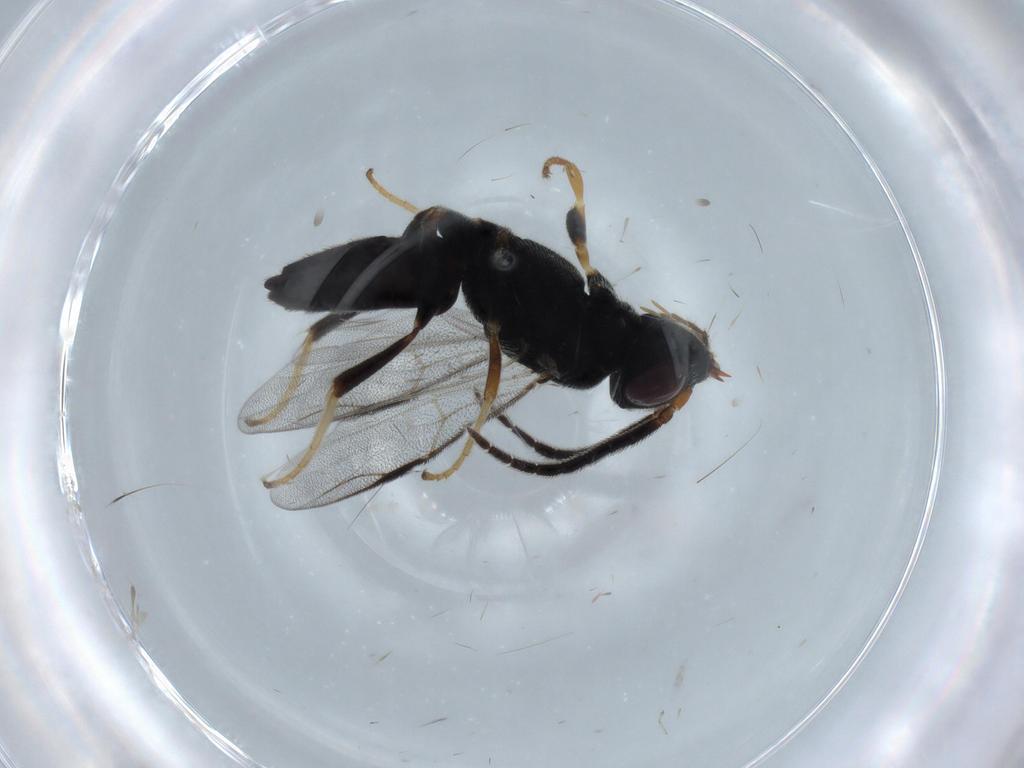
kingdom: Animalia
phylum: Arthropoda
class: Insecta
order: Hymenoptera
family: Dryinidae
